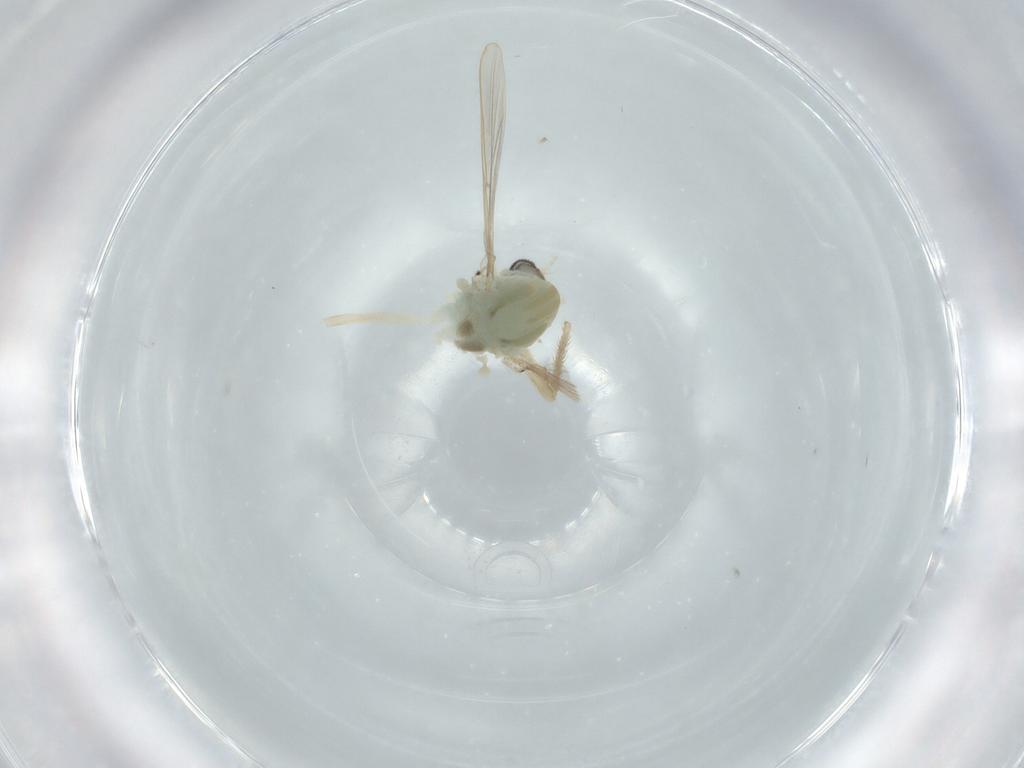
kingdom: Animalia
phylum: Arthropoda
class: Insecta
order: Diptera
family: Chironomidae
